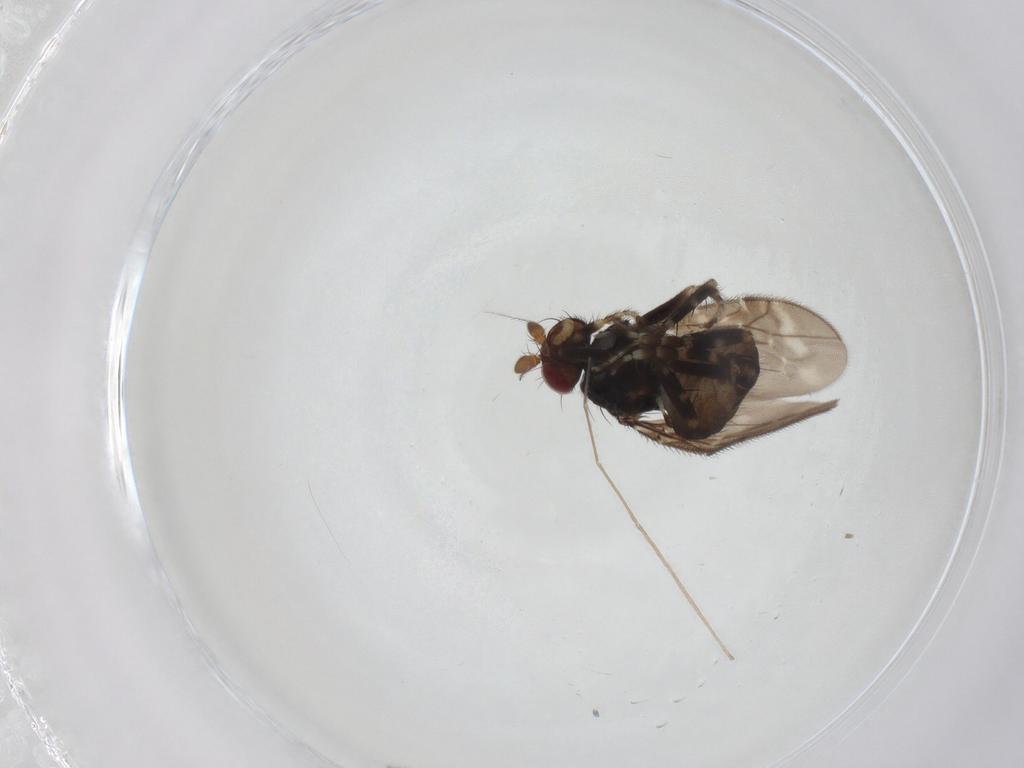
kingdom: Animalia
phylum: Arthropoda
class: Insecta
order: Diptera
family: Sphaeroceridae
